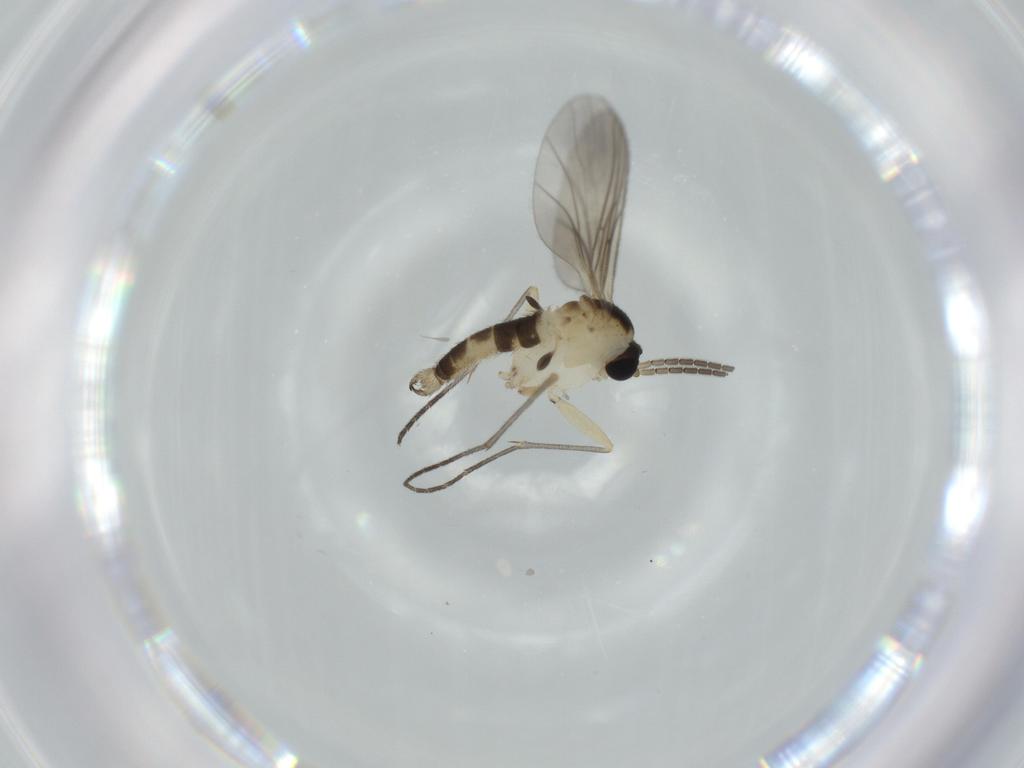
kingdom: Animalia
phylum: Arthropoda
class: Insecta
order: Diptera
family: Sciaridae
